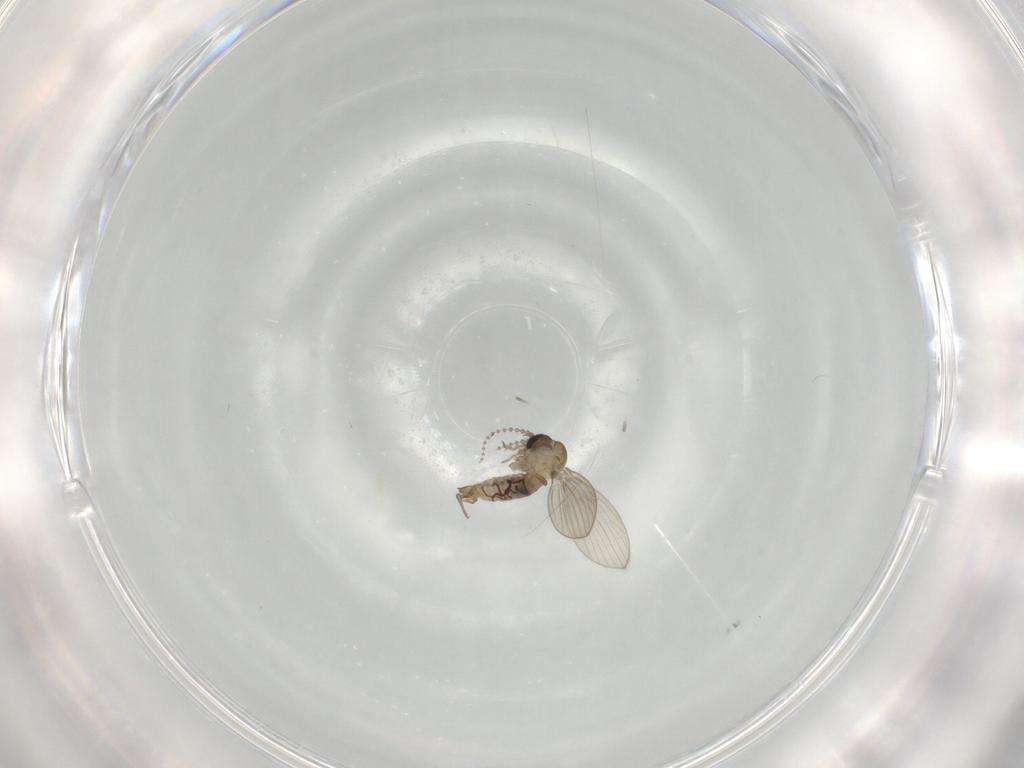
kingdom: Animalia
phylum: Arthropoda
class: Insecta
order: Diptera
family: Psychodidae
